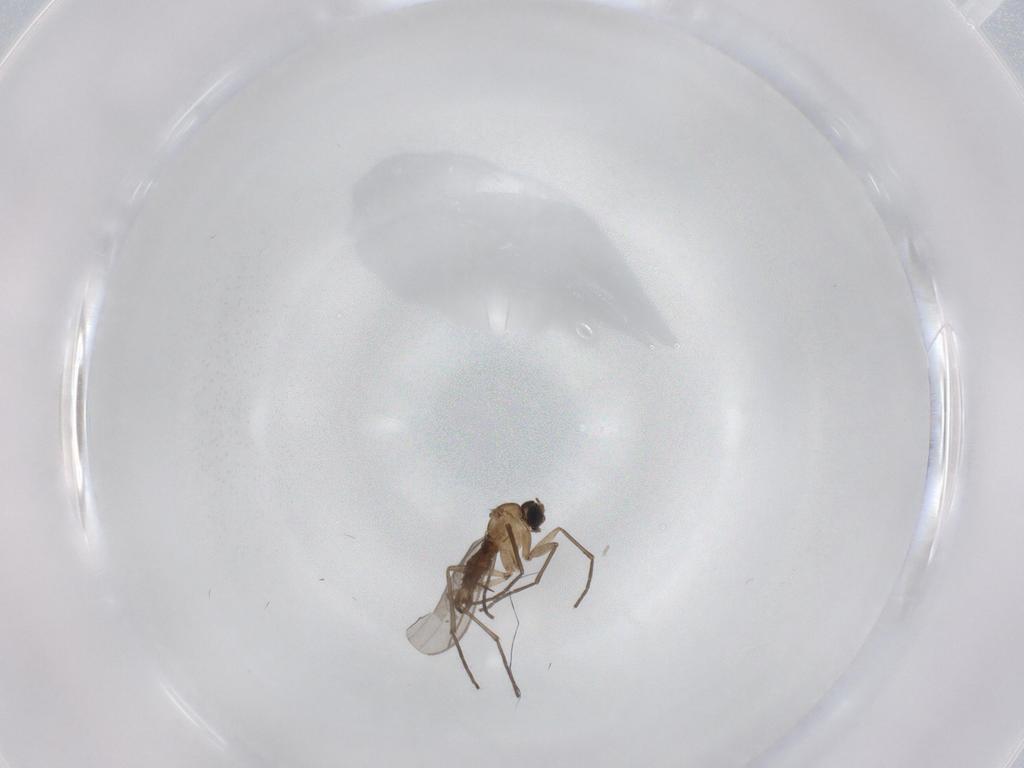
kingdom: Animalia
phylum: Arthropoda
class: Insecta
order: Diptera
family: Sciaridae
